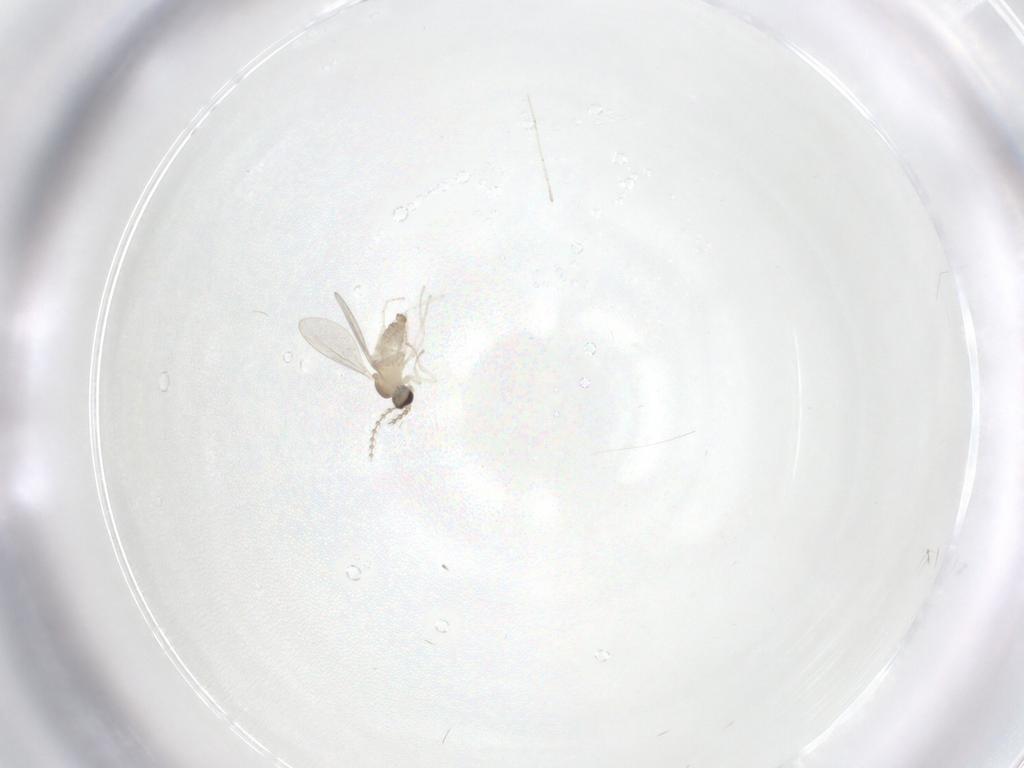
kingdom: Animalia
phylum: Arthropoda
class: Insecta
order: Diptera
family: Cecidomyiidae
